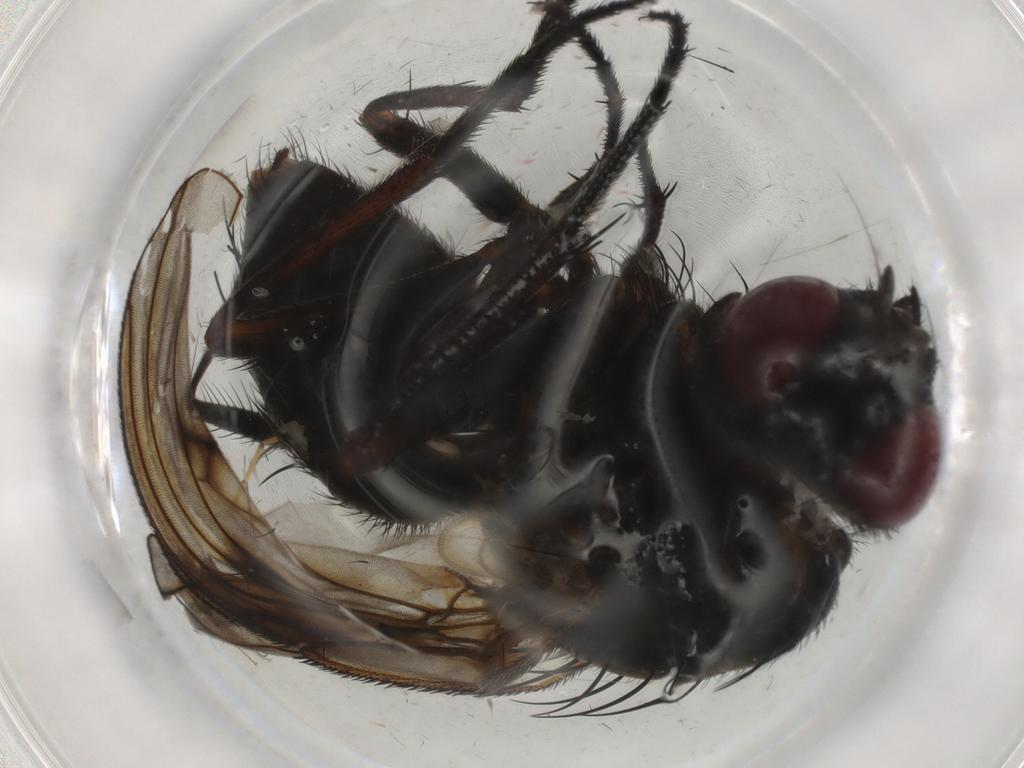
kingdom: Animalia
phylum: Arthropoda
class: Insecta
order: Diptera
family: Muscidae
